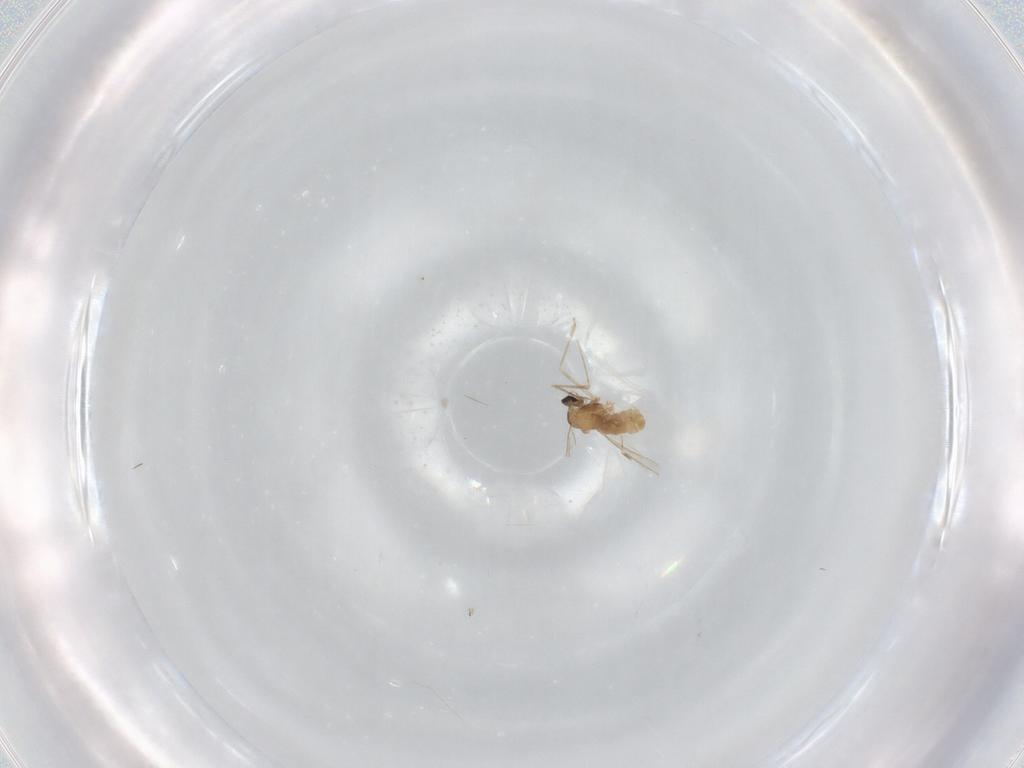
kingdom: Animalia
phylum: Arthropoda
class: Insecta
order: Diptera
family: Cecidomyiidae
